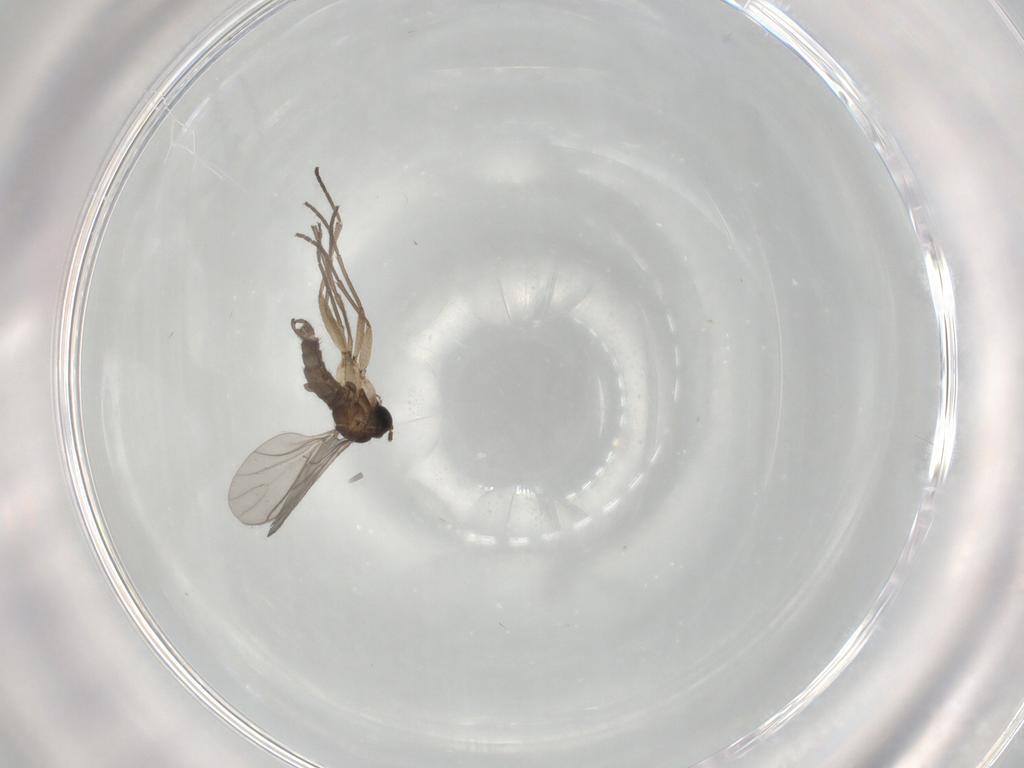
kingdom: Animalia
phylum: Arthropoda
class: Insecta
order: Diptera
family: Sciaridae
